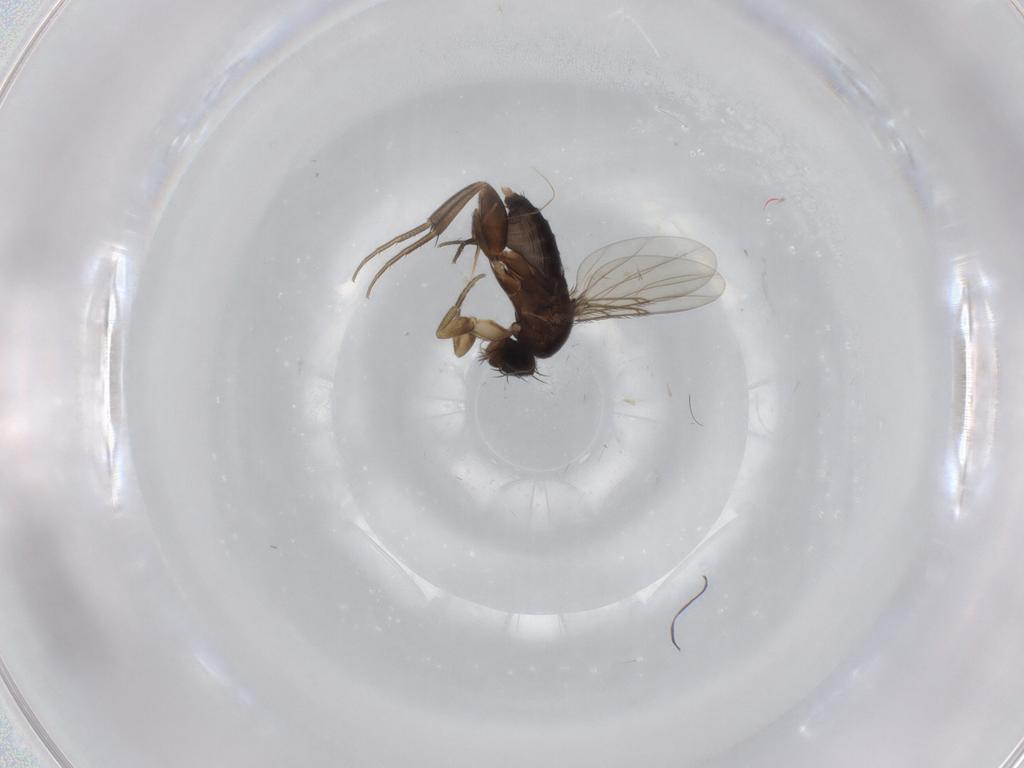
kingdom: Animalia
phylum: Arthropoda
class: Insecta
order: Diptera
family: Phoridae
